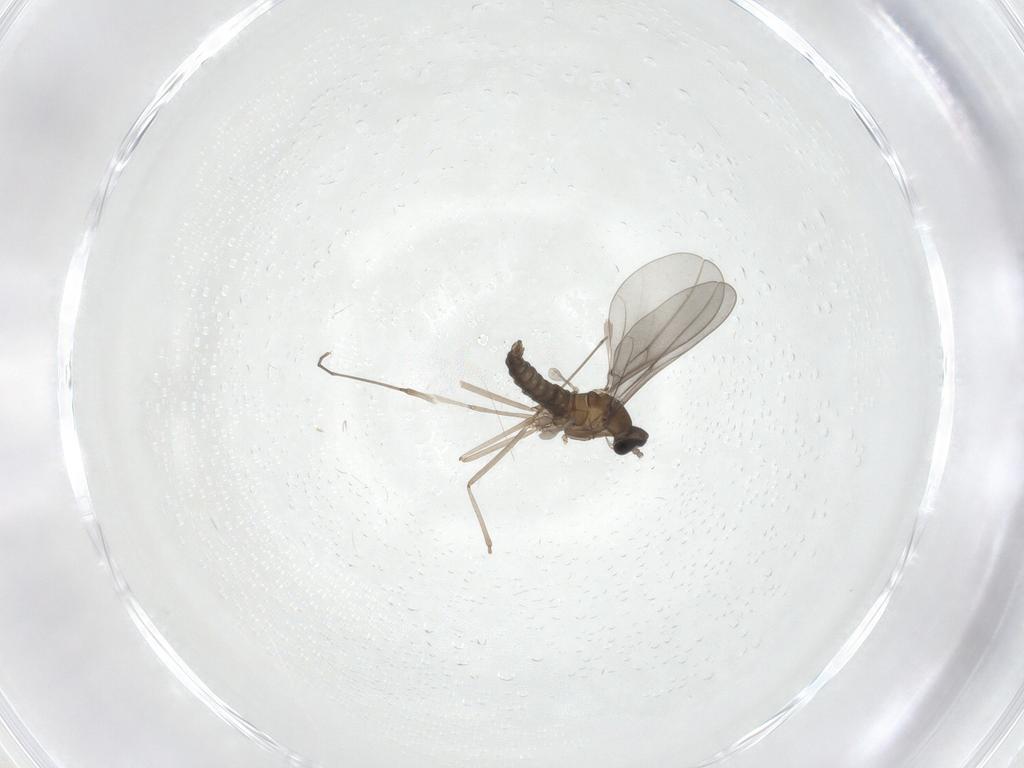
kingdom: Animalia
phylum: Arthropoda
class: Insecta
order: Diptera
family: Cecidomyiidae
